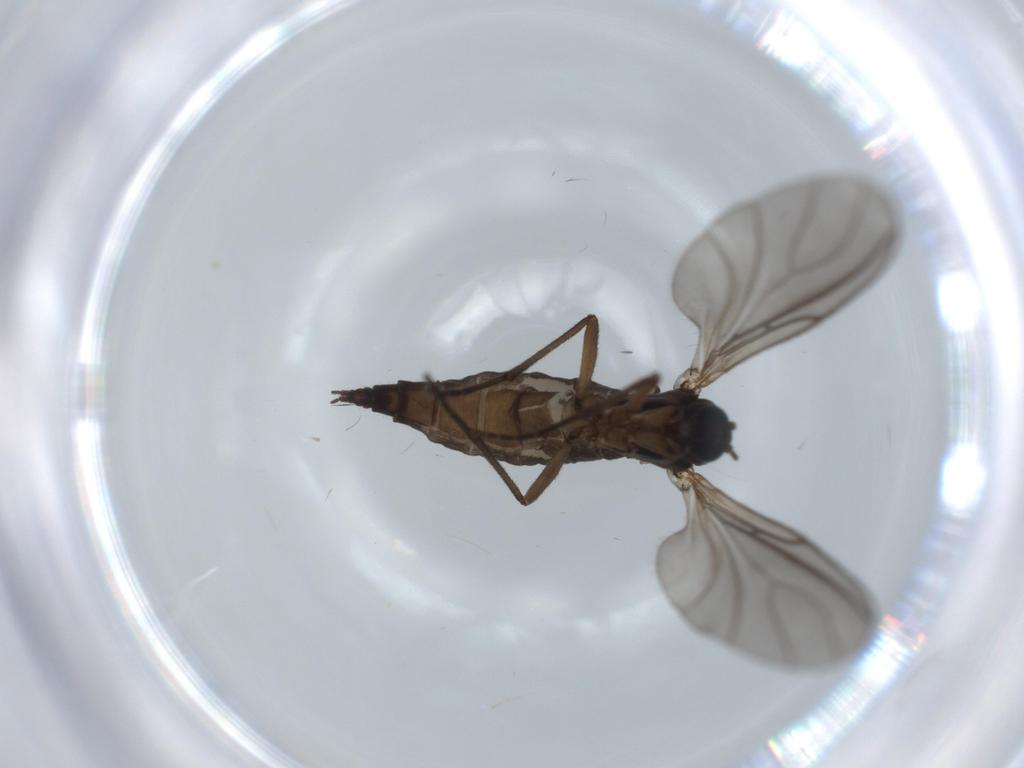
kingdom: Animalia
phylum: Arthropoda
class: Insecta
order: Diptera
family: Sciaridae
